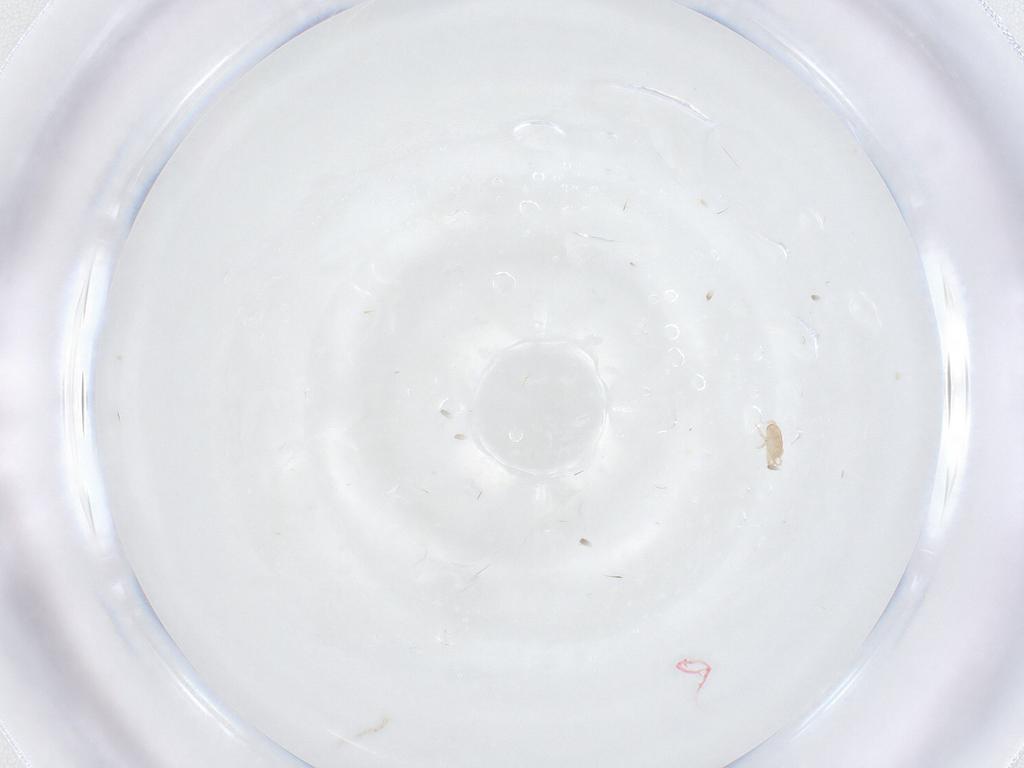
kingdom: Animalia
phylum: Arthropoda
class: Arachnida
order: Mesostigmata
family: Ascidae
